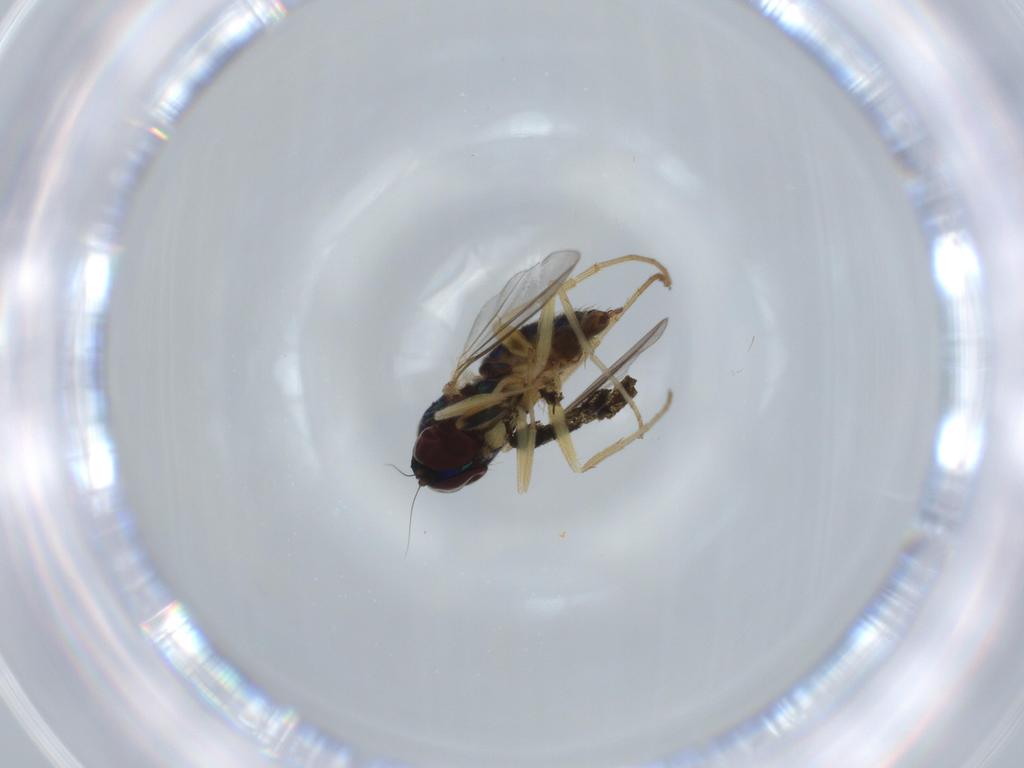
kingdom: Animalia
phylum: Arthropoda
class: Insecta
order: Diptera
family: Dolichopodidae
